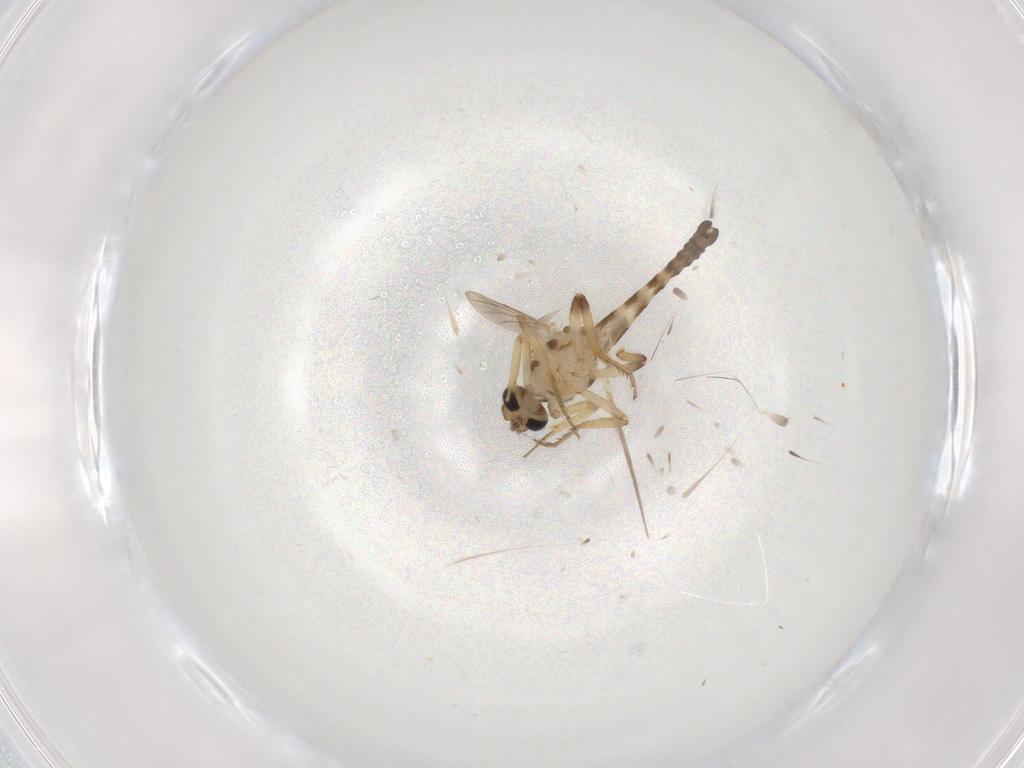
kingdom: Animalia
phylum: Arthropoda
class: Insecta
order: Diptera
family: Ceratopogonidae
